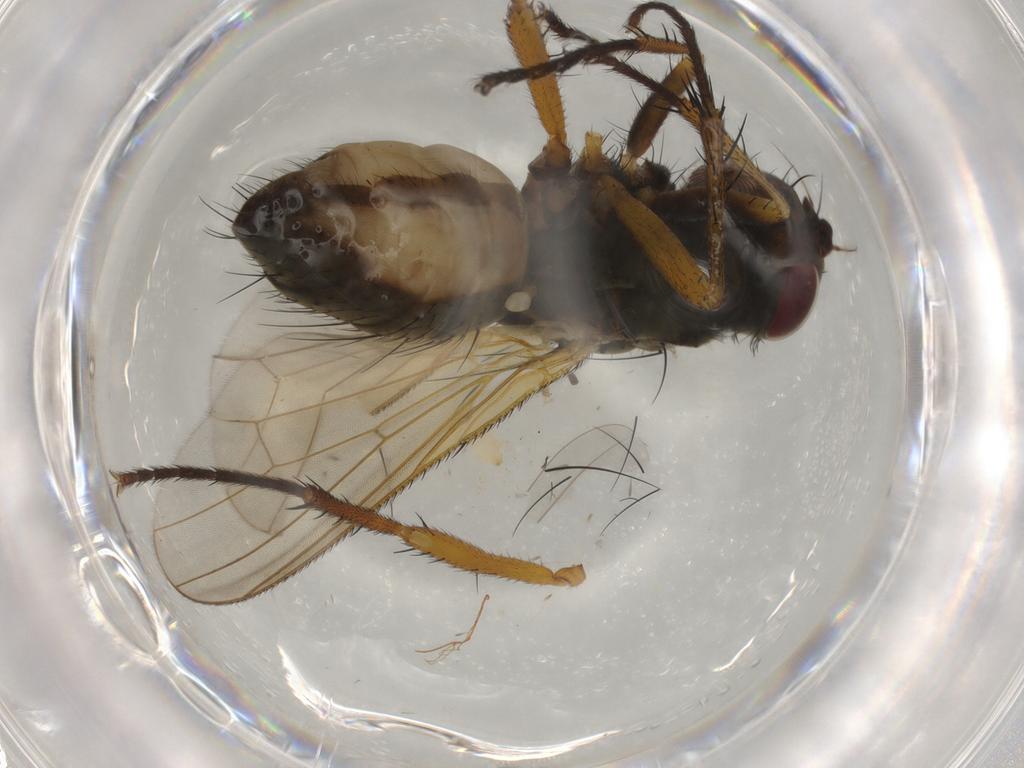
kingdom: Animalia
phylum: Arthropoda
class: Insecta
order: Diptera
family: Anthomyiidae
